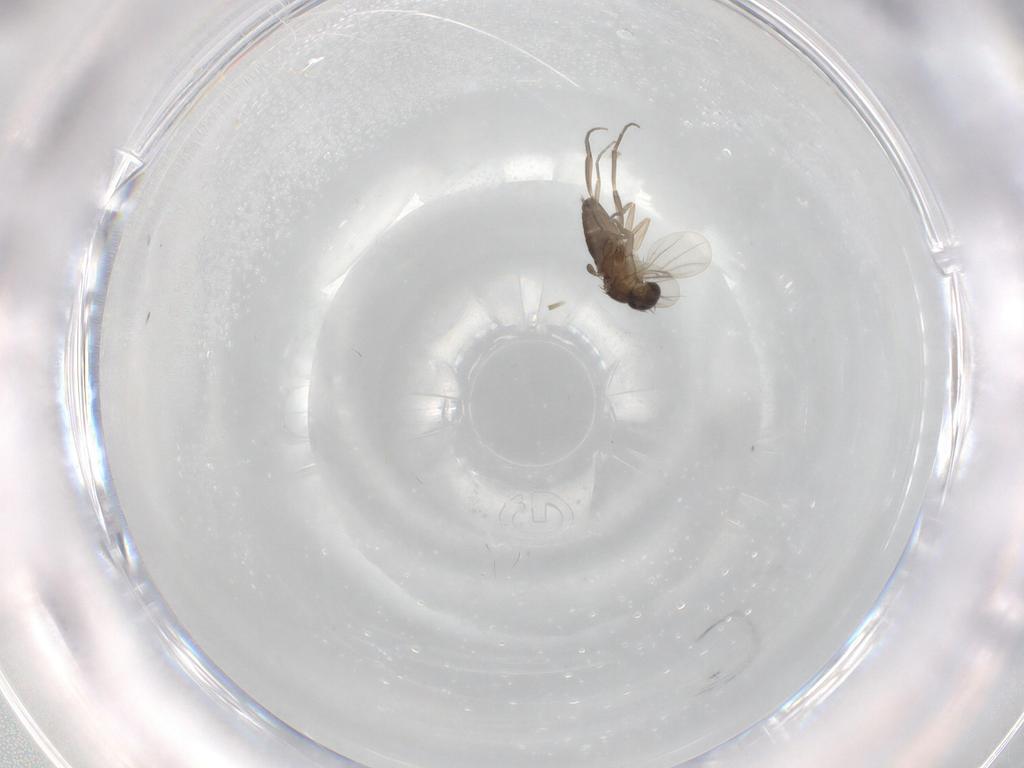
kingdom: Animalia
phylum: Arthropoda
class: Insecta
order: Diptera
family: Phoridae
